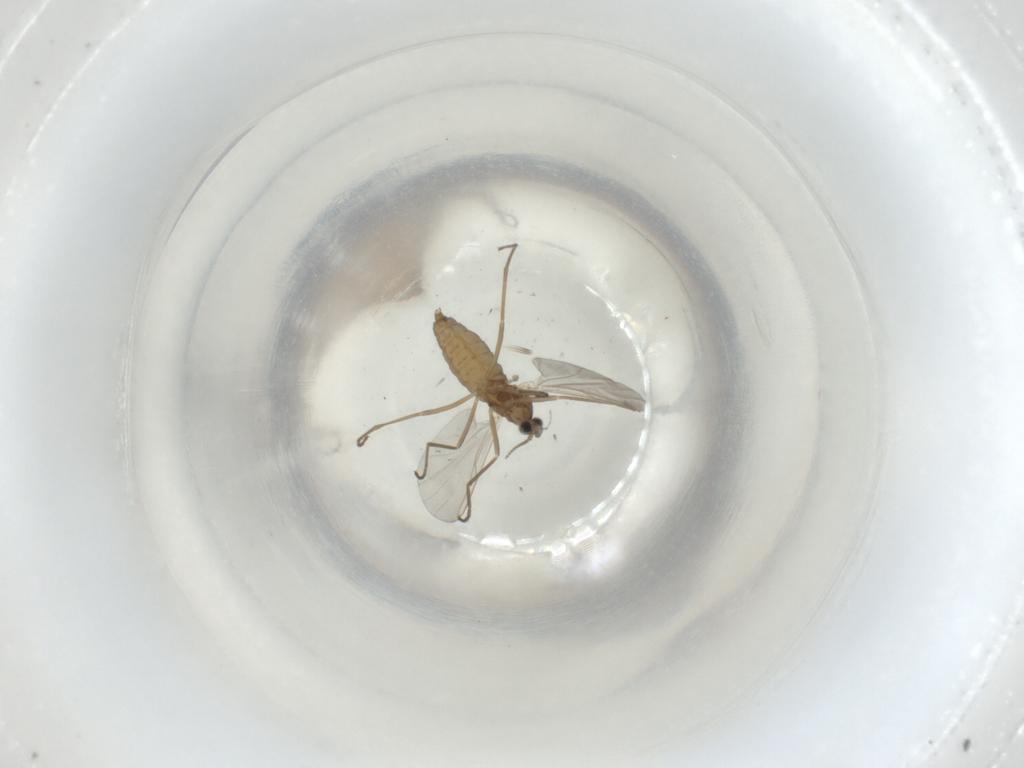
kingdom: Animalia
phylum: Arthropoda
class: Insecta
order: Diptera
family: Cecidomyiidae
